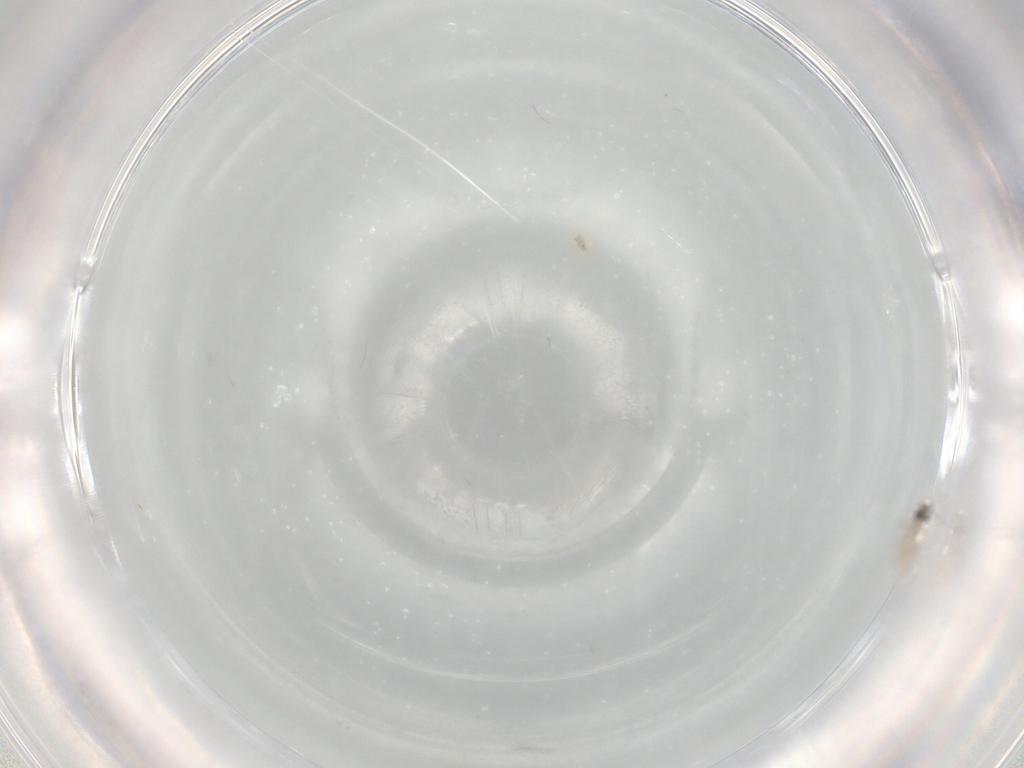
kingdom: Animalia
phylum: Arthropoda
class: Insecta
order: Diptera
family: Cecidomyiidae
